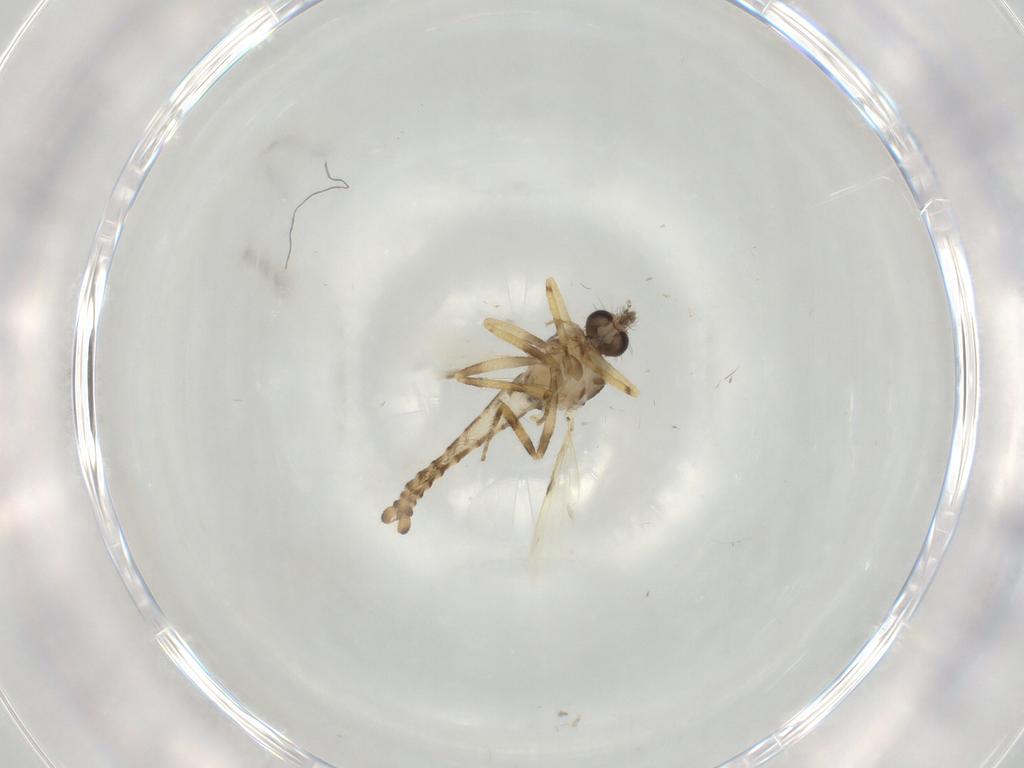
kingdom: Animalia
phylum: Arthropoda
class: Insecta
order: Diptera
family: Ceratopogonidae
